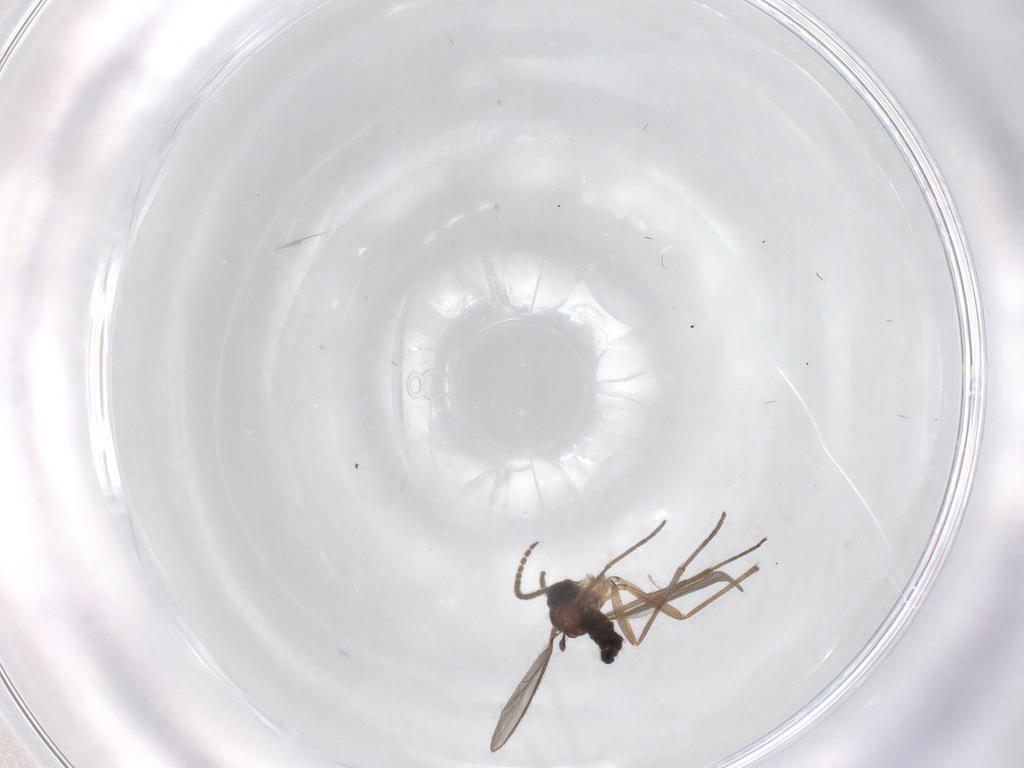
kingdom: Animalia
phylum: Arthropoda
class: Insecta
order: Diptera
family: Sciaridae
